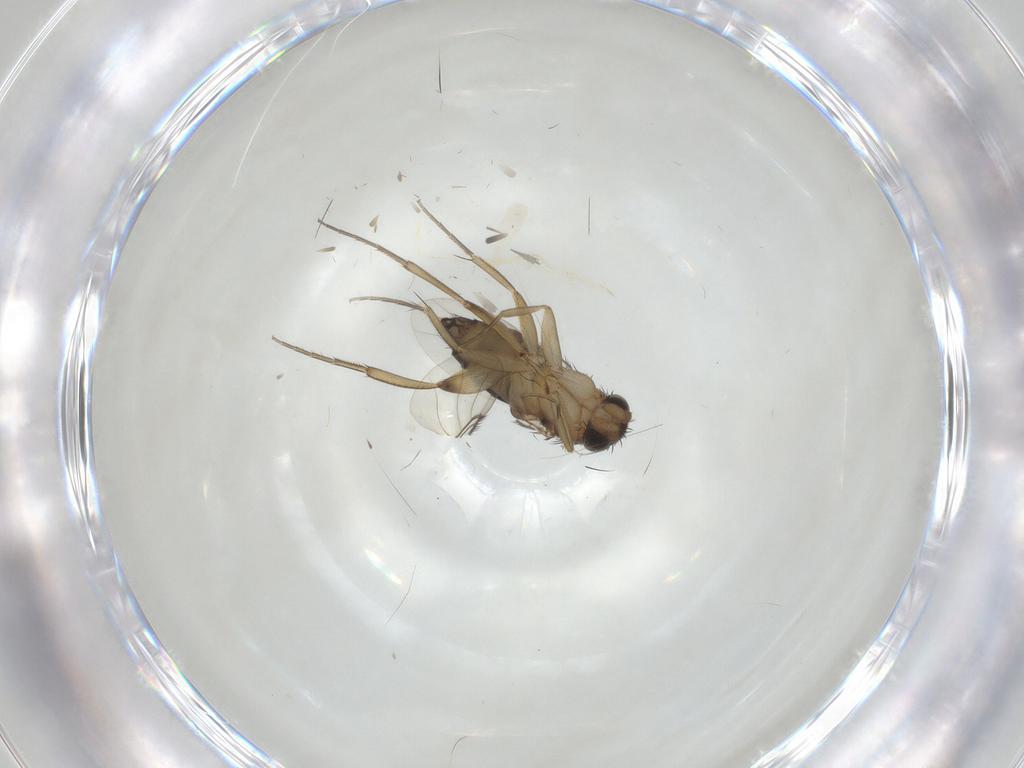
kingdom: Animalia
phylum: Arthropoda
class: Insecta
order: Diptera
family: Phoridae
